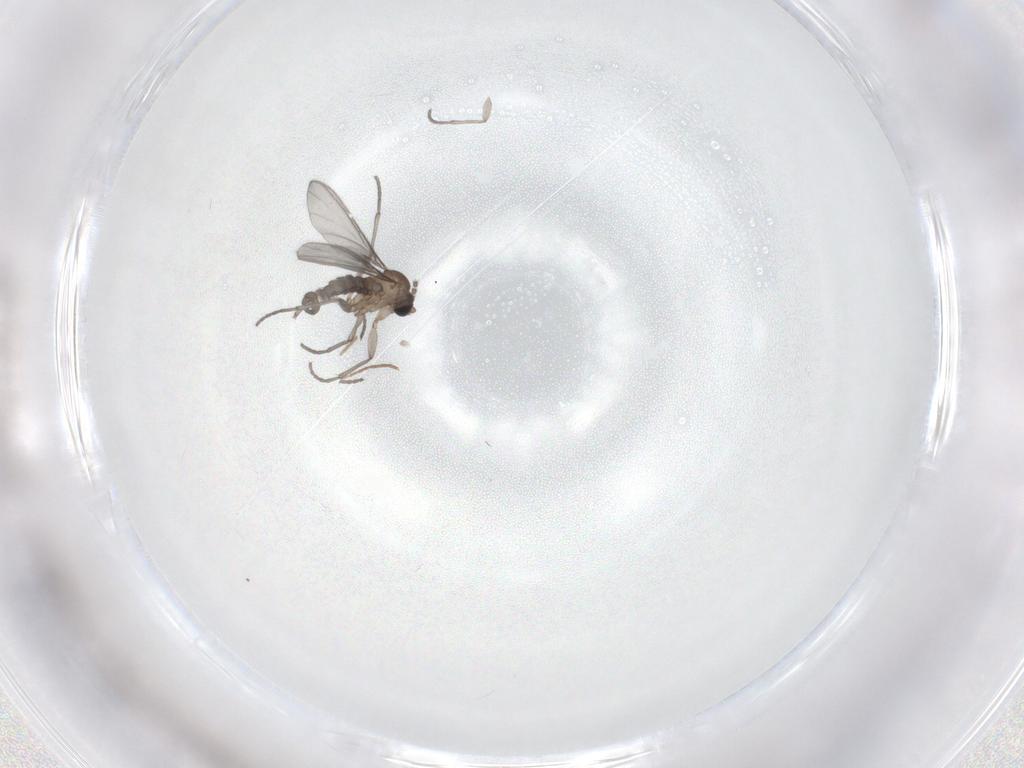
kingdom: Animalia
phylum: Arthropoda
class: Insecta
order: Diptera
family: Sciaridae
